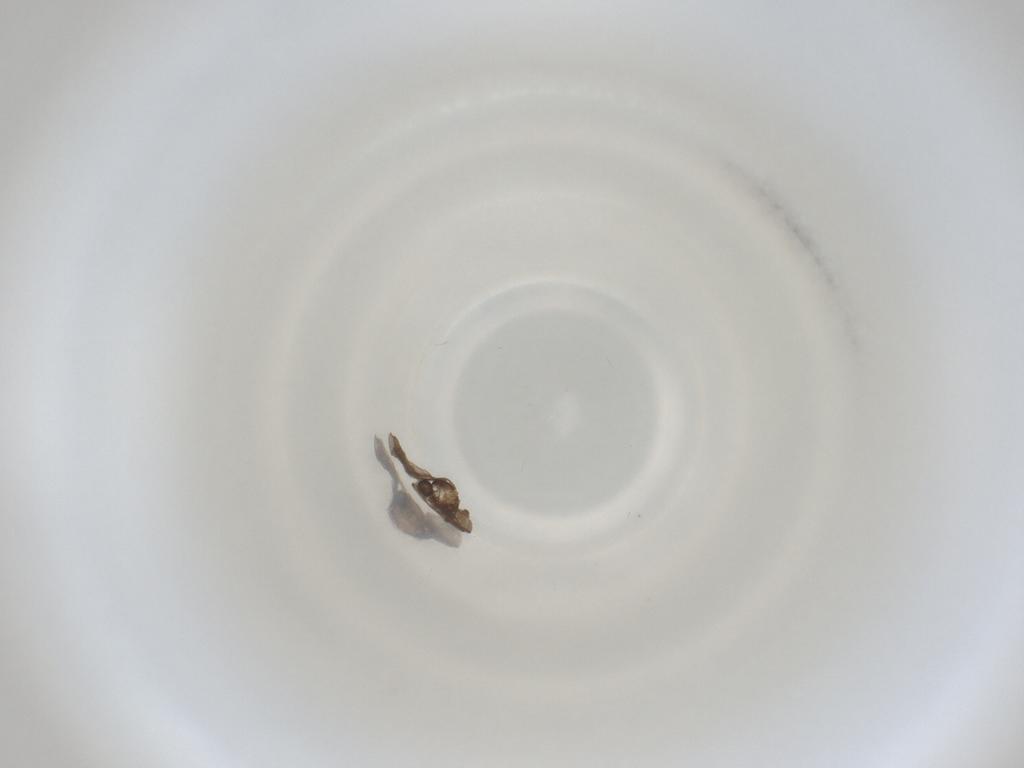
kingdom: Animalia
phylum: Arthropoda
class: Insecta
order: Diptera
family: Cecidomyiidae
